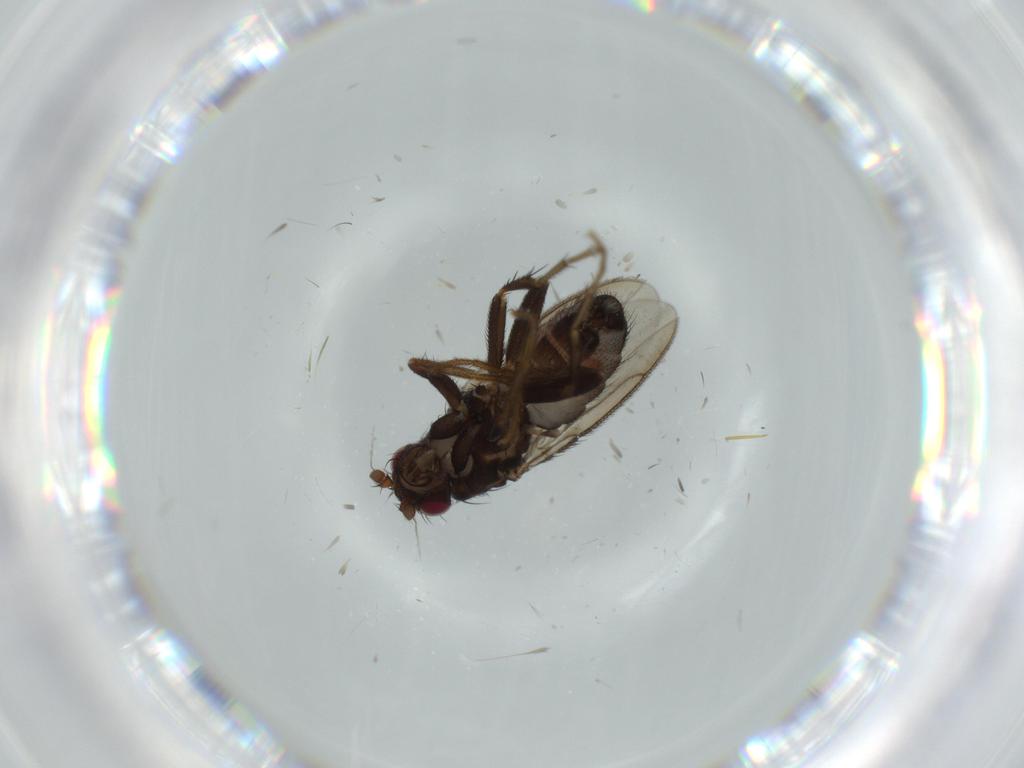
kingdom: Animalia
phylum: Arthropoda
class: Insecta
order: Diptera
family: Sphaeroceridae
